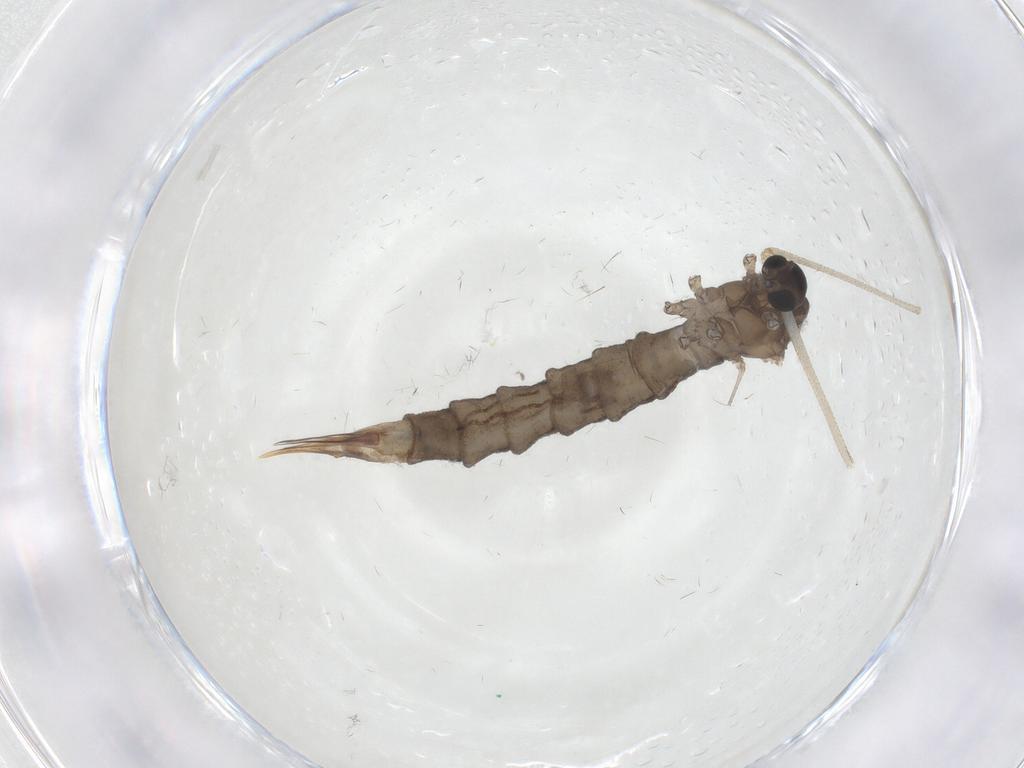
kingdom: Animalia
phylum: Arthropoda
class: Insecta
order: Diptera
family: Limoniidae
